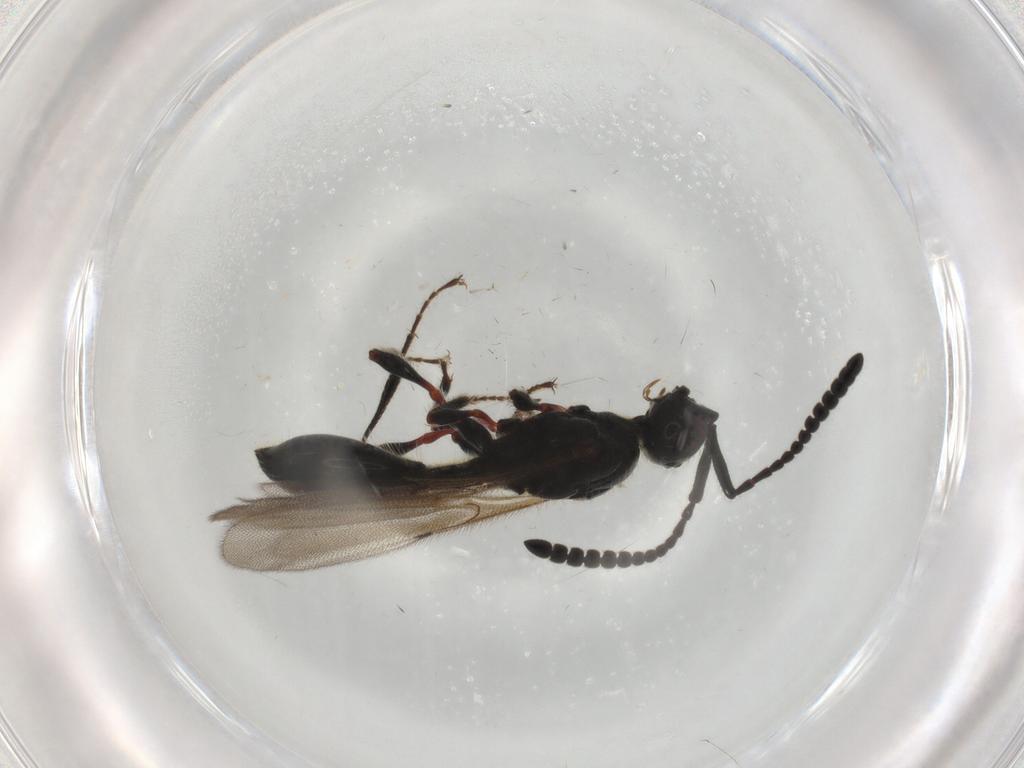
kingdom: Animalia
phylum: Arthropoda
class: Insecta
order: Hymenoptera
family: Diapriidae
